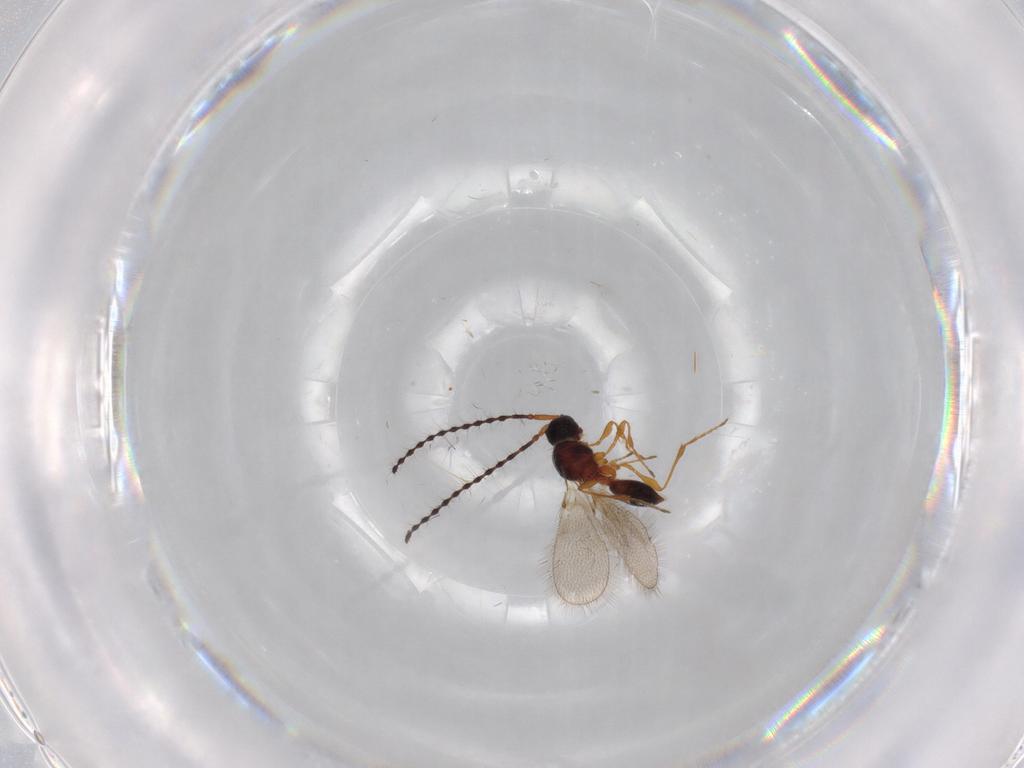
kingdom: Animalia
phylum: Arthropoda
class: Insecta
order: Hymenoptera
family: Diapriidae
